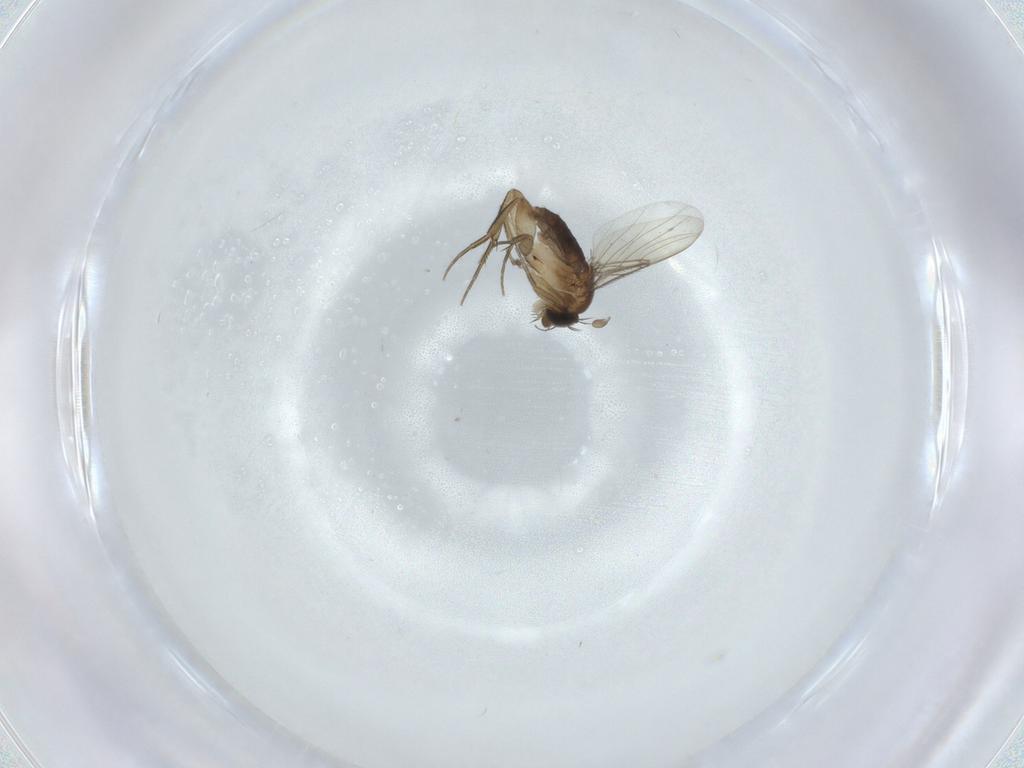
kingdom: Animalia
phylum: Arthropoda
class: Insecta
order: Diptera
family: Phoridae
